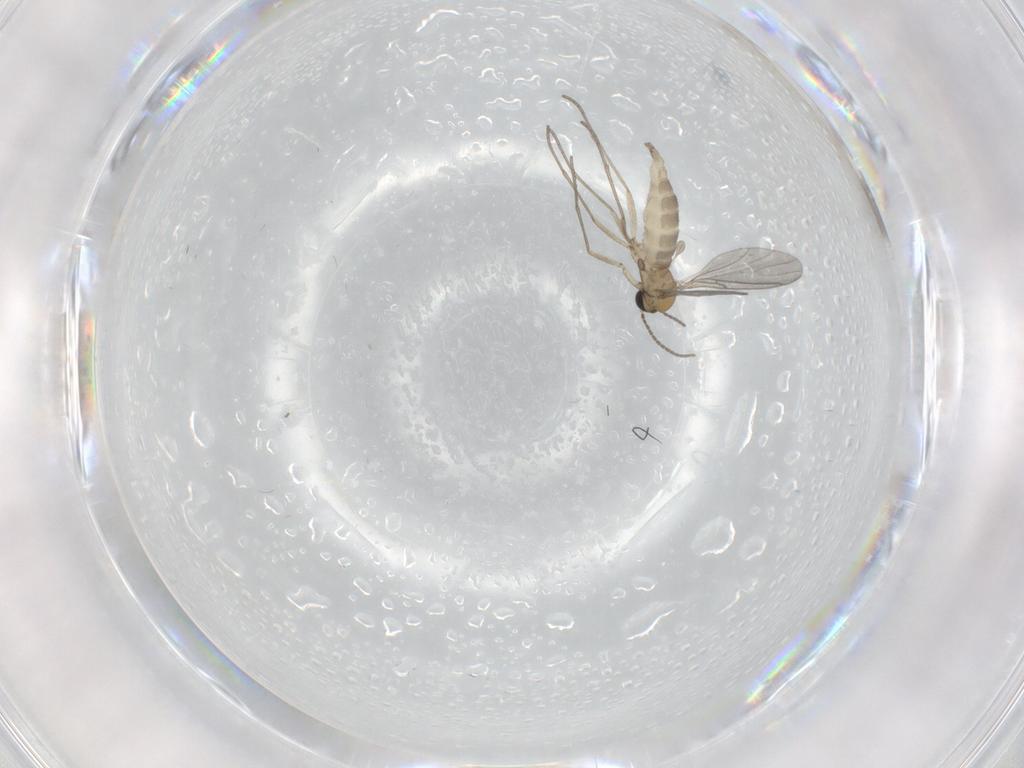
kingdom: Animalia
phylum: Arthropoda
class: Insecta
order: Diptera
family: Sciaridae
